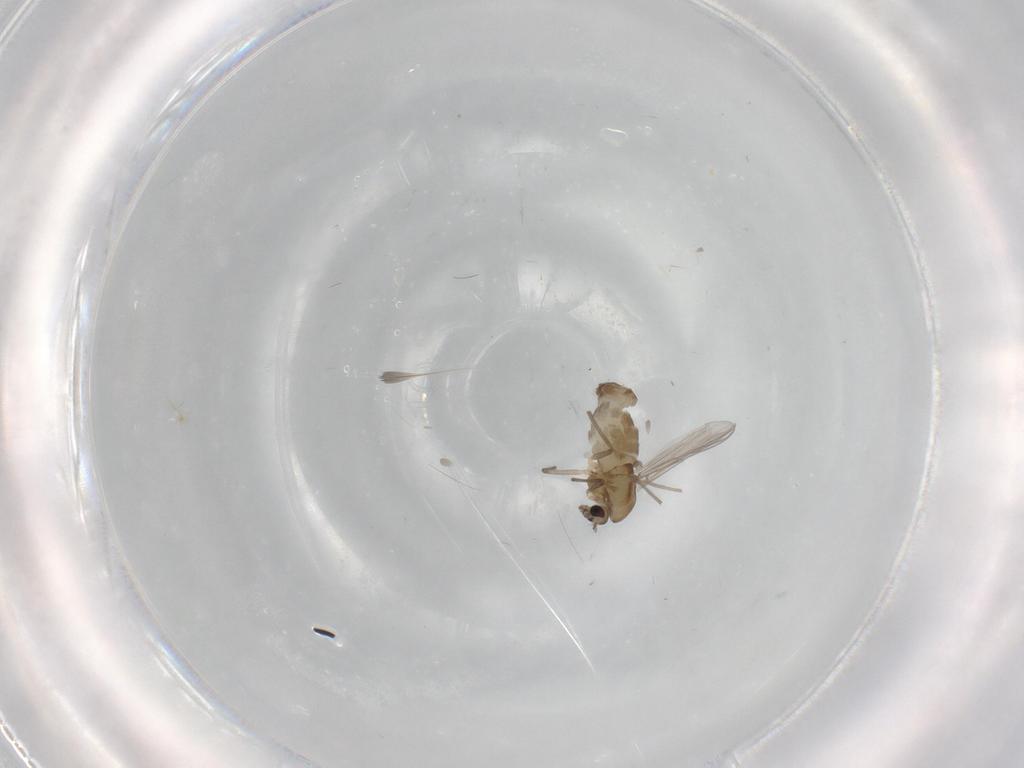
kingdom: Animalia
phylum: Arthropoda
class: Insecta
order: Diptera
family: Chironomidae
